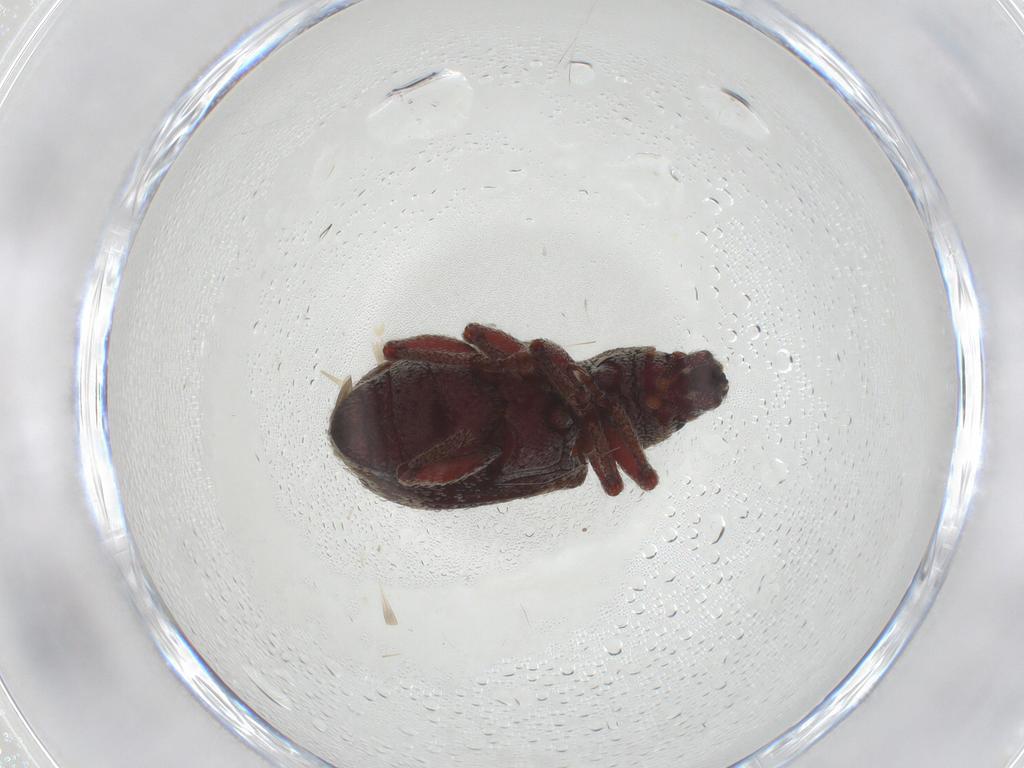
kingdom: Animalia
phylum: Arthropoda
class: Insecta
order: Coleoptera
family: Curculionidae
